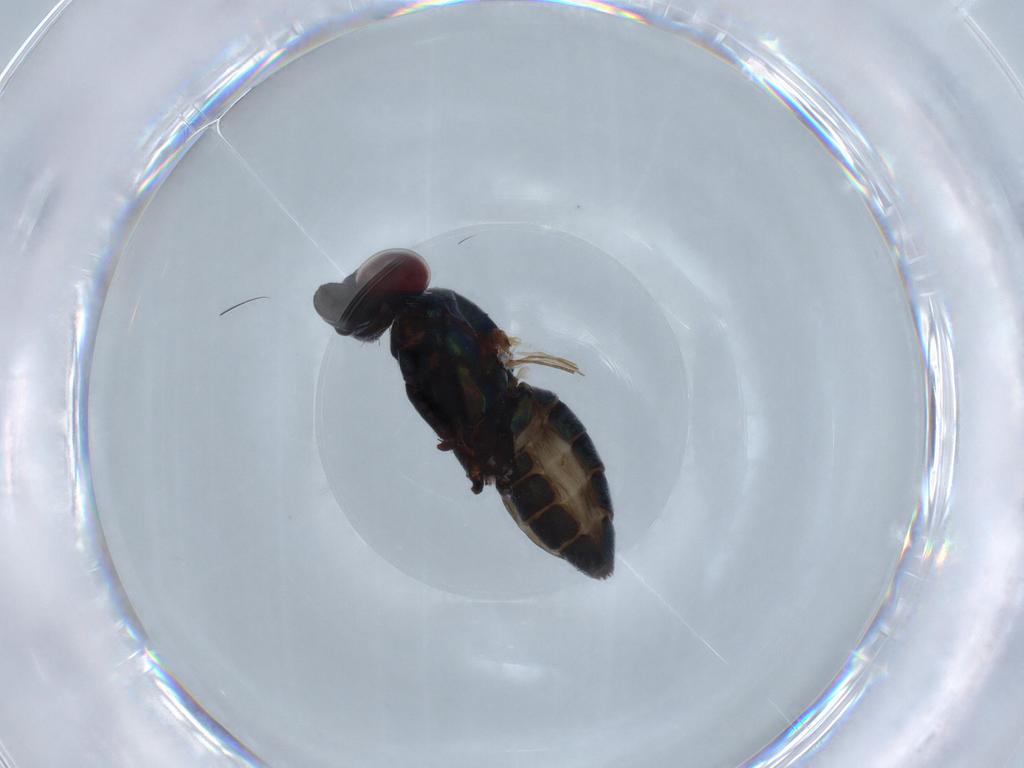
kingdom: Animalia
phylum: Arthropoda
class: Insecta
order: Diptera
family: Dolichopodidae
